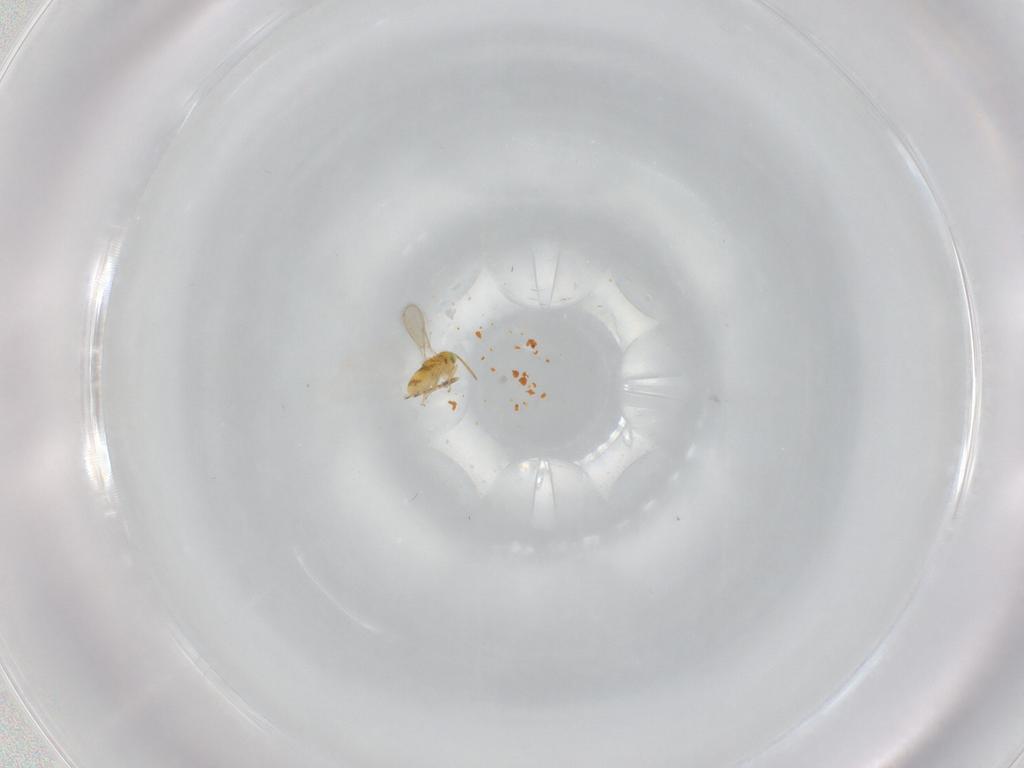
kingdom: Animalia
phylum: Arthropoda
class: Insecta
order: Hymenoptera
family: Aphelinidae
